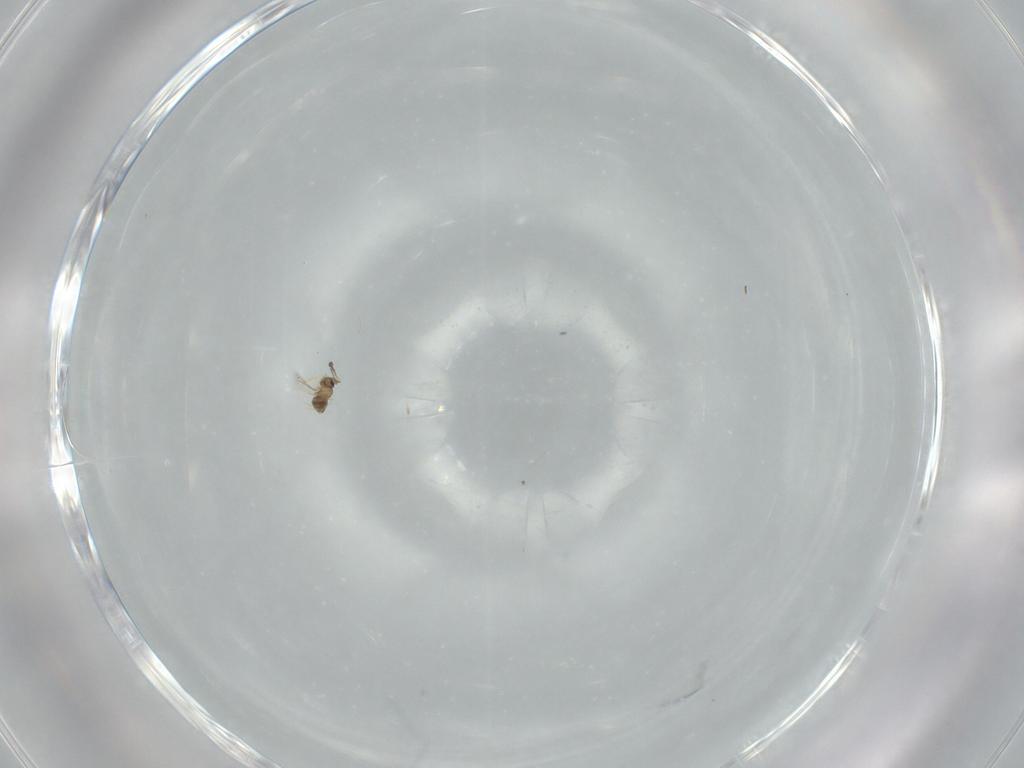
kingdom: Animalia
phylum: Arthropoda
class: Insecta
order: Hymenoptera
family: Mymaridae
